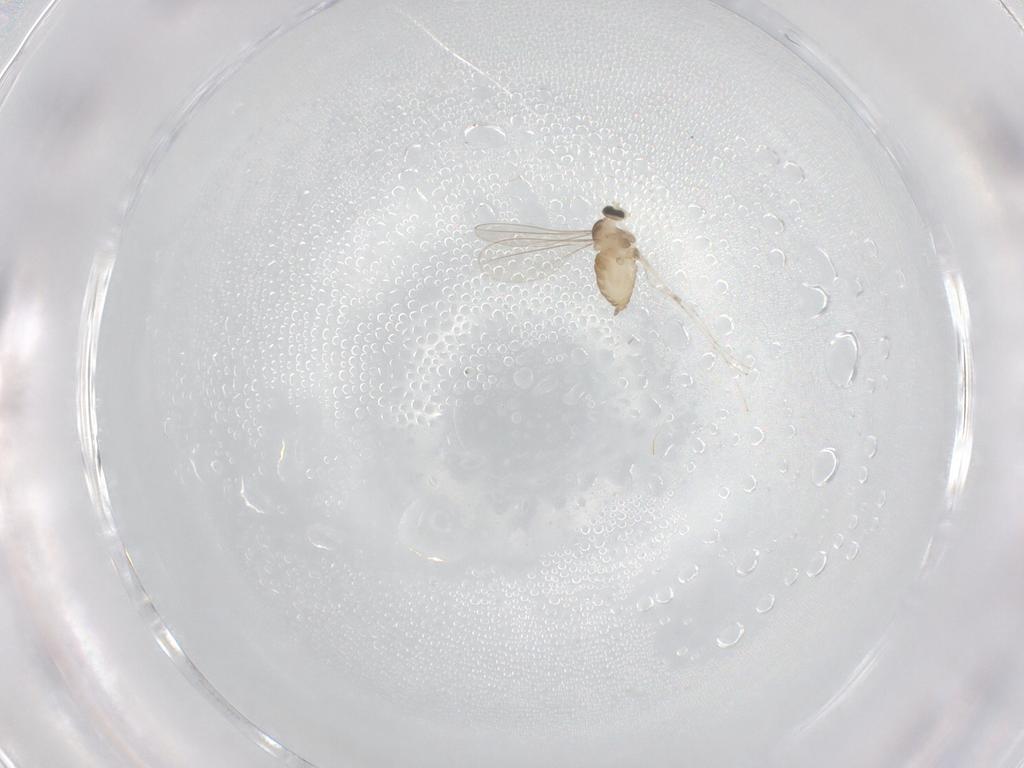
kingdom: Animalia
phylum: Arthropoda
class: Insecta
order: Diptera
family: Cecidomyiidae
